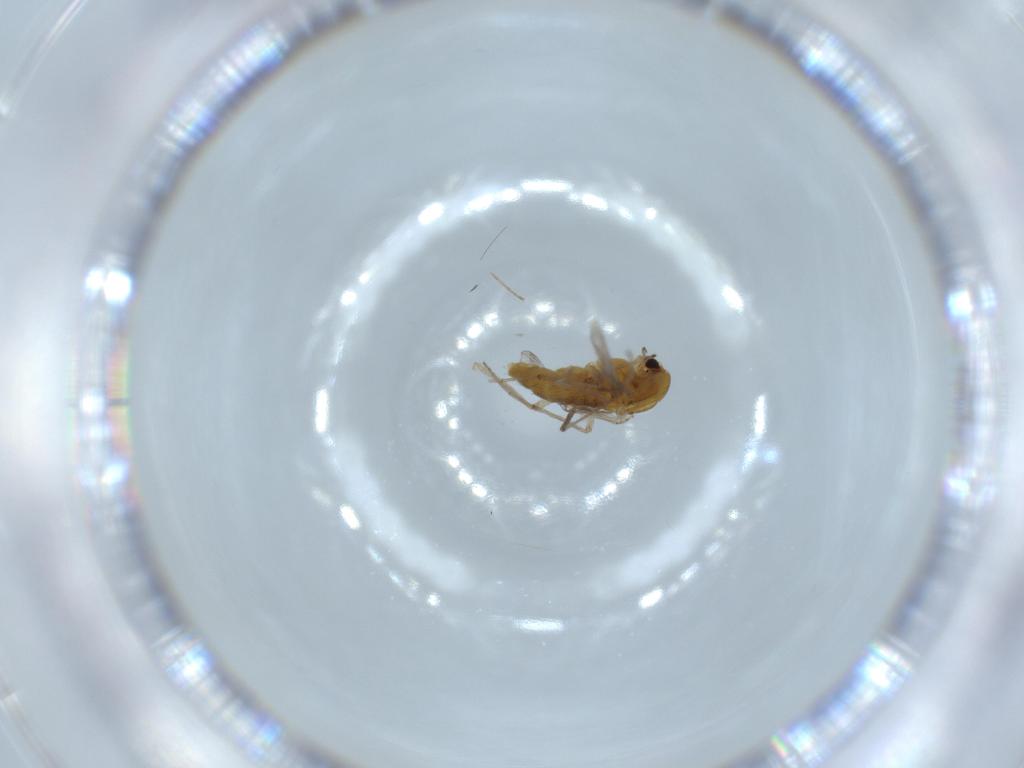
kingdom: Animalia
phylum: Arthropoda
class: Insecta
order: Diptera
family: Chironomidae
